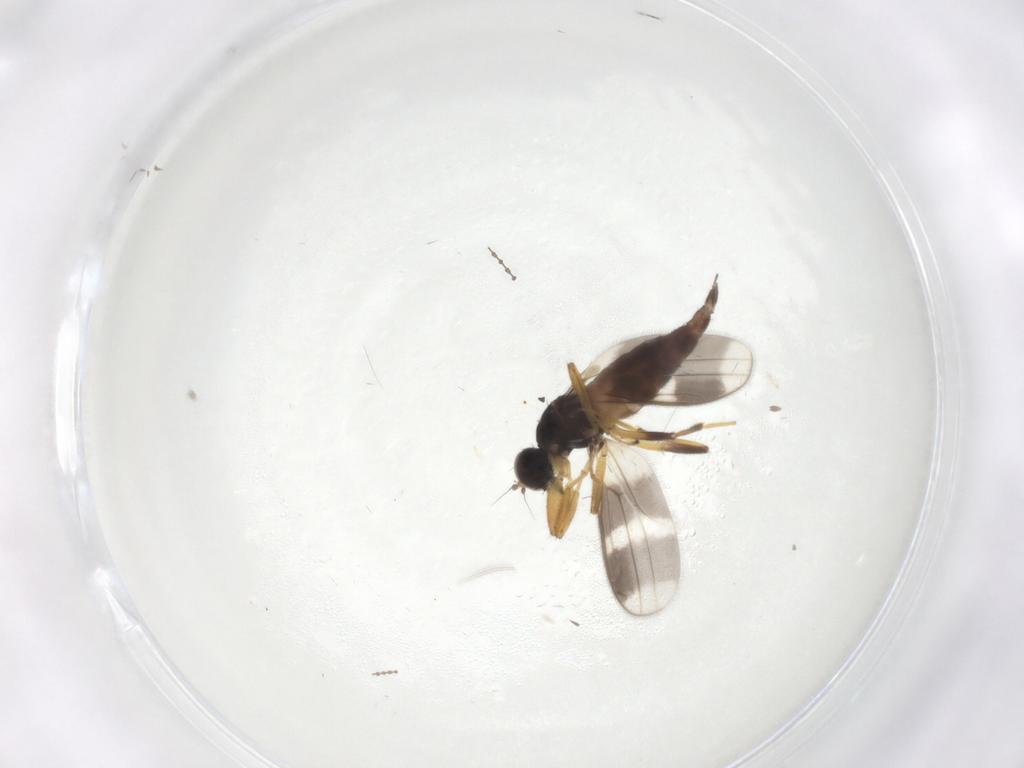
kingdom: Animalia
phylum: Arthropoda
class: Insecta
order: Diptera
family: Hybotidae
